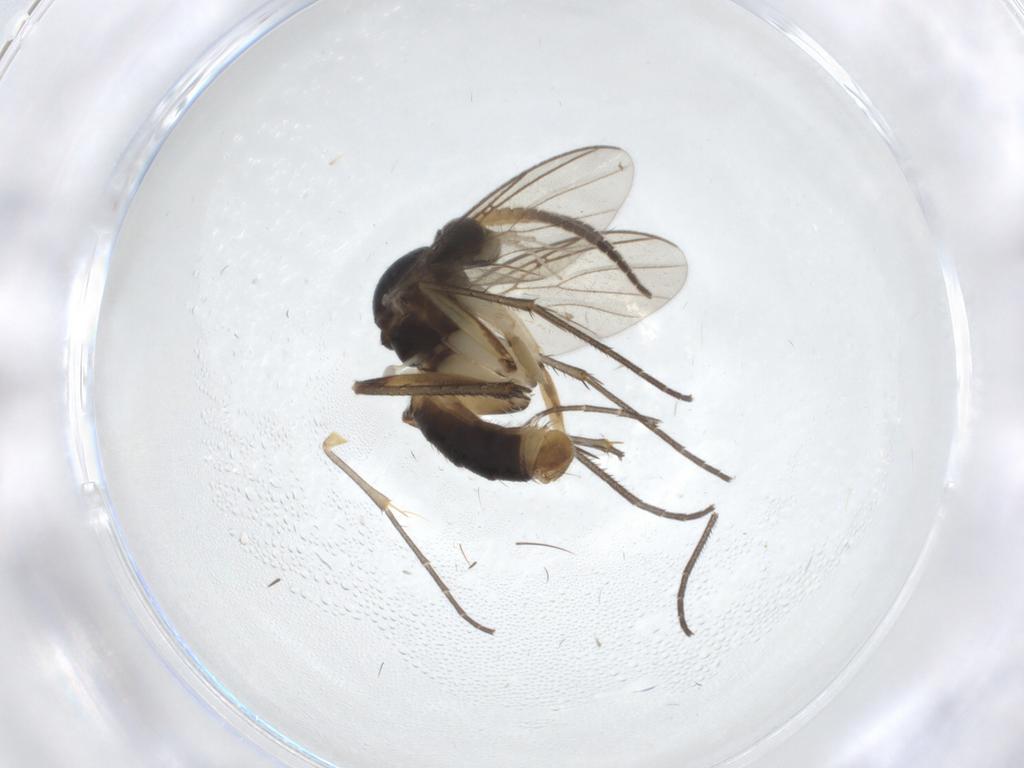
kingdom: Animalia
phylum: Arthropoda
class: Insecta
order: Diptera
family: Mycetophilidae
